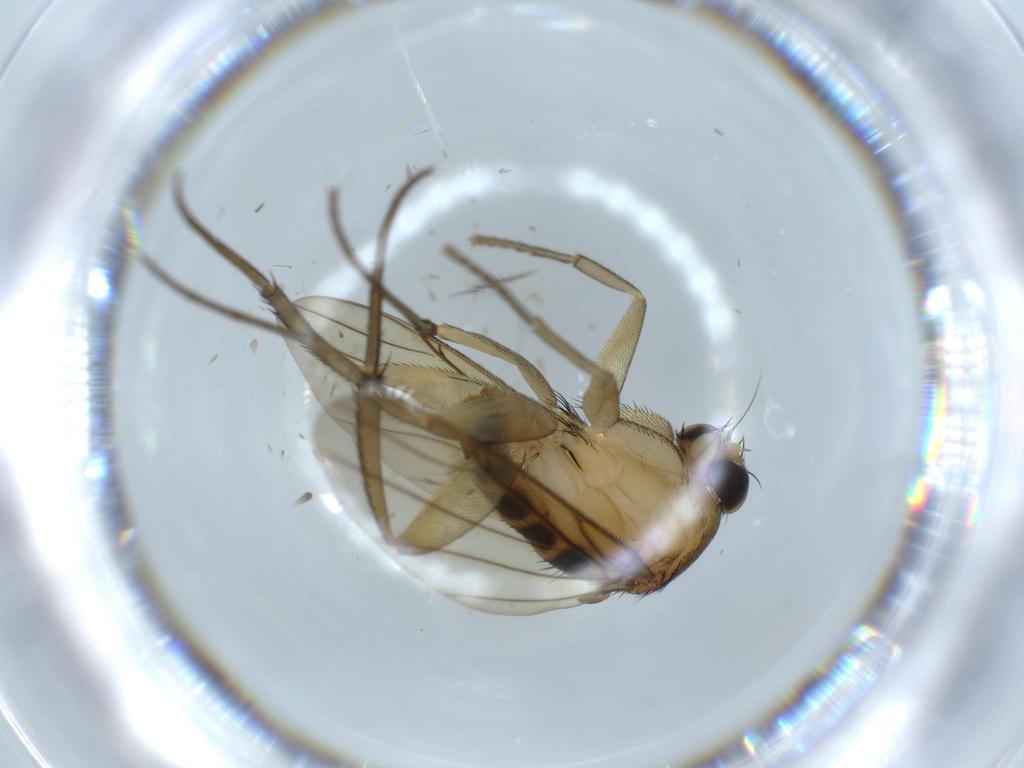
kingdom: Animalia
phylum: Arthropoda
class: Insecta
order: Diptera
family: Sciaridae
